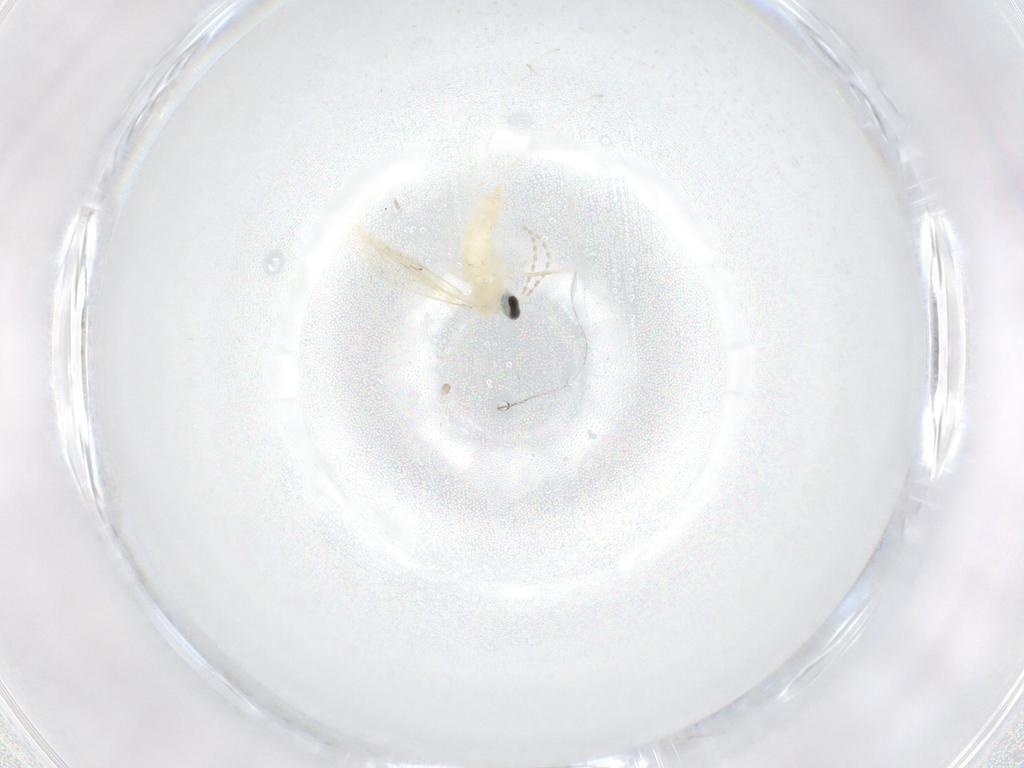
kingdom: Animalia
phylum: Arthropoda
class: Insecta
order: Diptera
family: Cecidomyiidae
